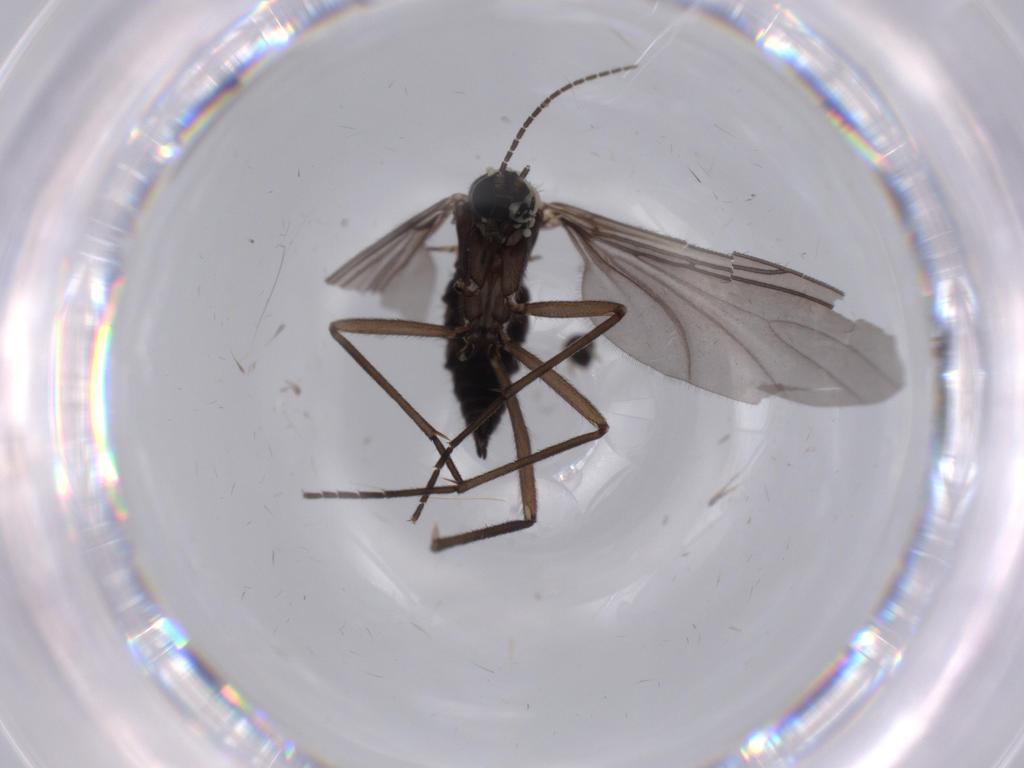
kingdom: Animalia
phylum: Arthropoda
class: Insecta
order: Diptera
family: Sciaridae
